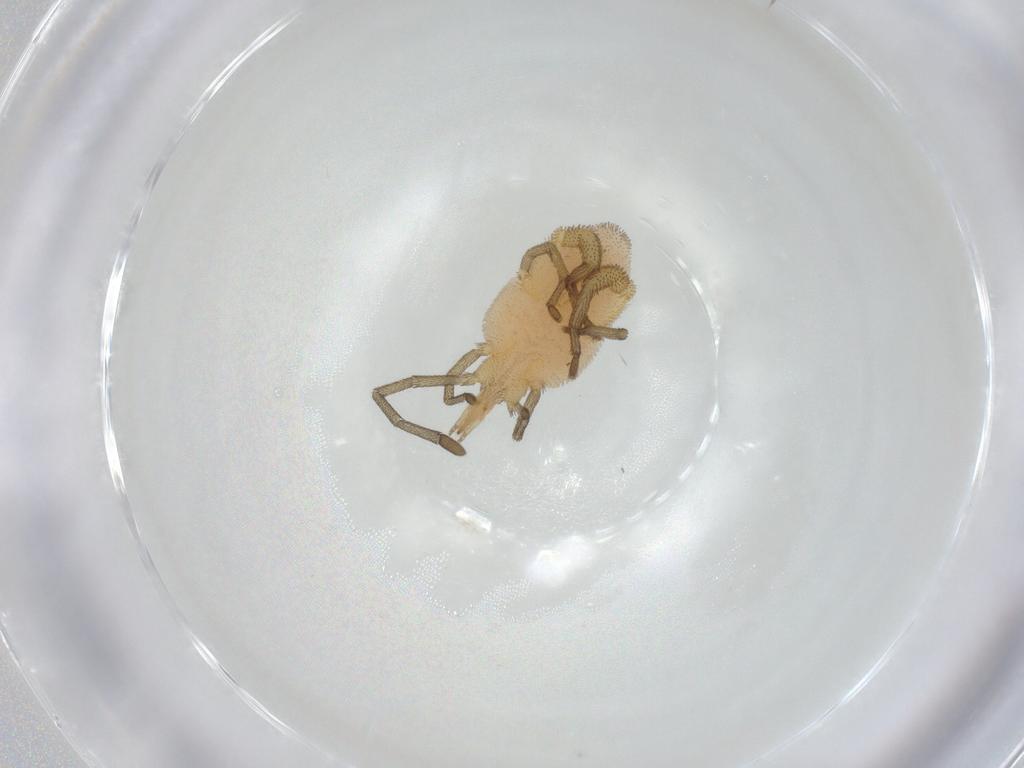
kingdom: Animalia
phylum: Arthropoda
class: Arachnida
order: Trombidiformes
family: Smarididae
